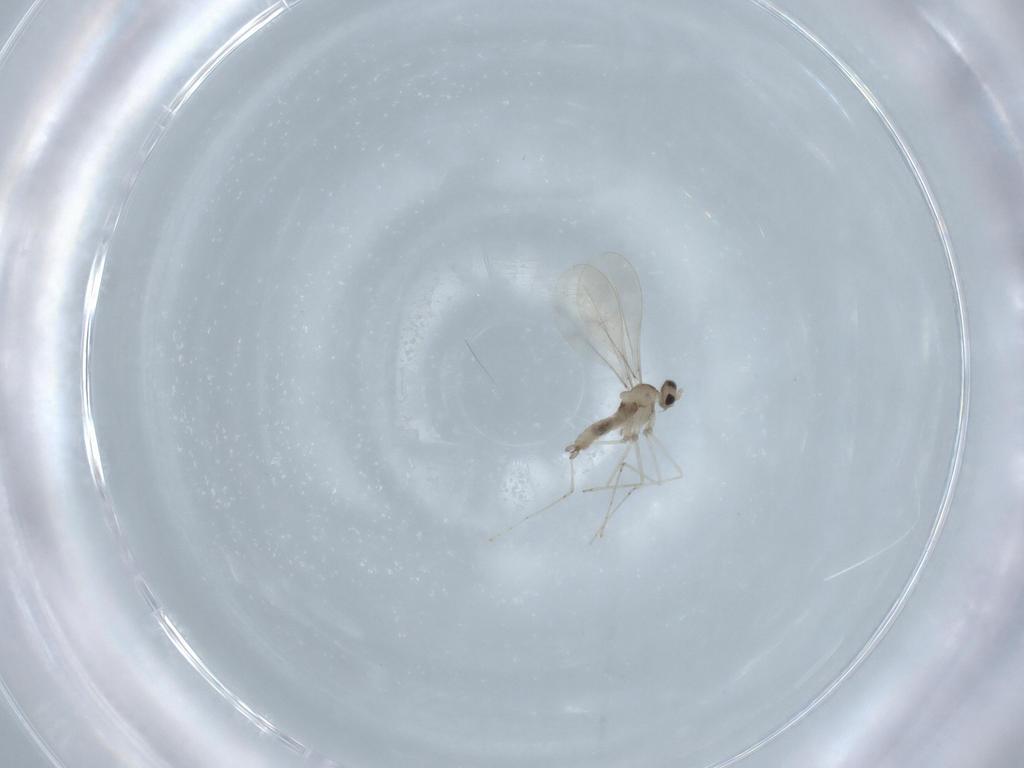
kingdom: Animalia
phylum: Arthropoda
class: Insecta
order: Diptera
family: Cecidomyiidae
